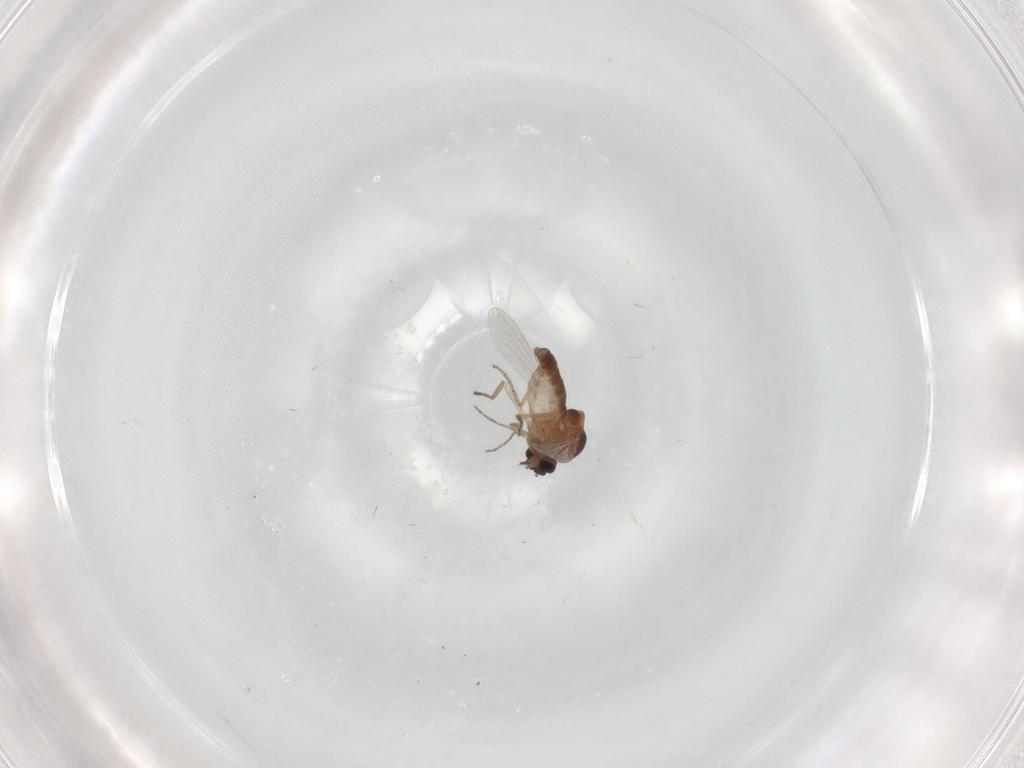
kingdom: Animalia
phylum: Arthropoda
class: Insecta
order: Diptera
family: Ceratopogonidae
